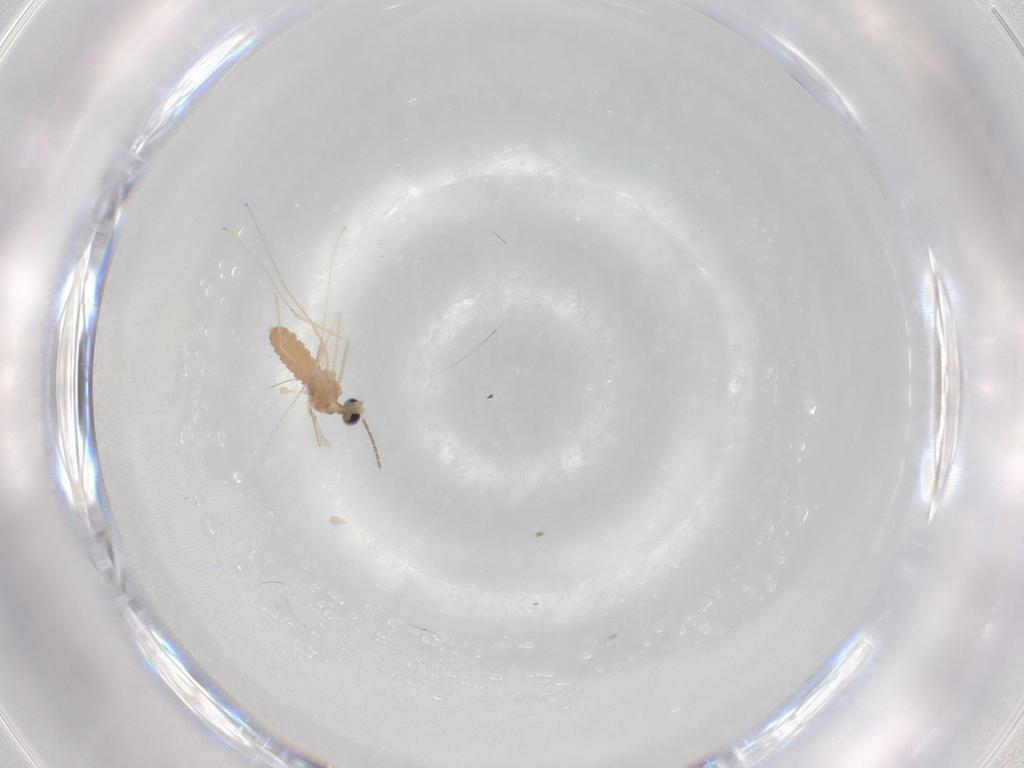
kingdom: Animalia
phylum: Arthropoda
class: Insecta
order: Diptera
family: Hybotidae
